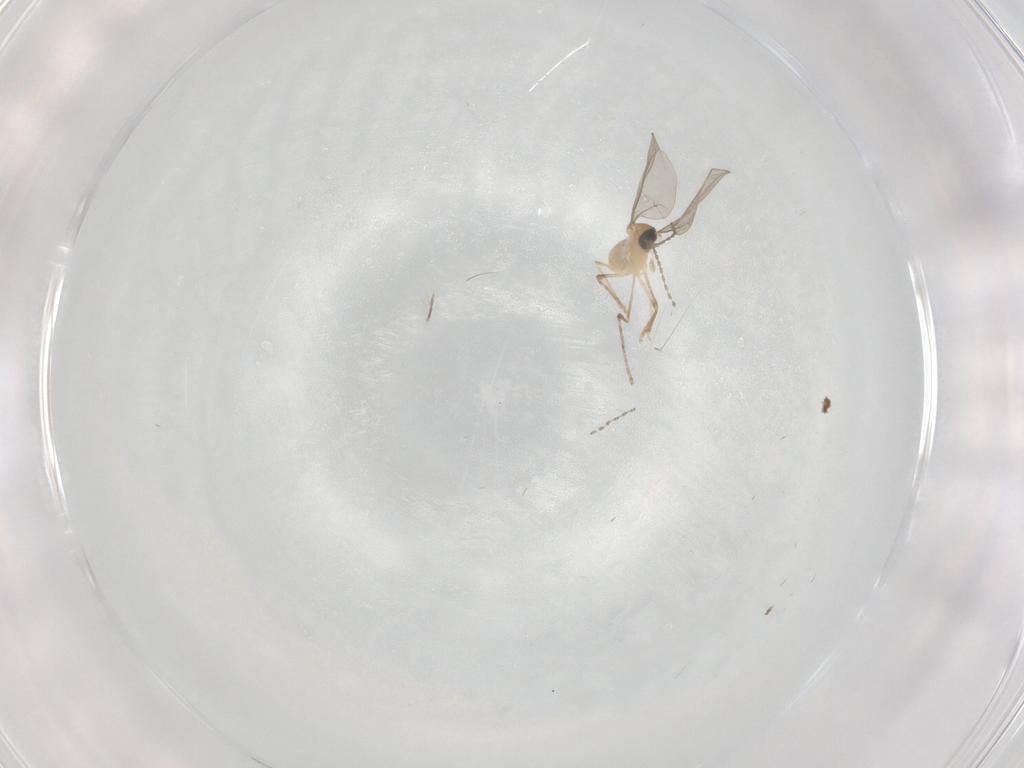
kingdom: Animalia
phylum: Arthropoda
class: Insecta
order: Diptera
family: Cecidomyiidae
